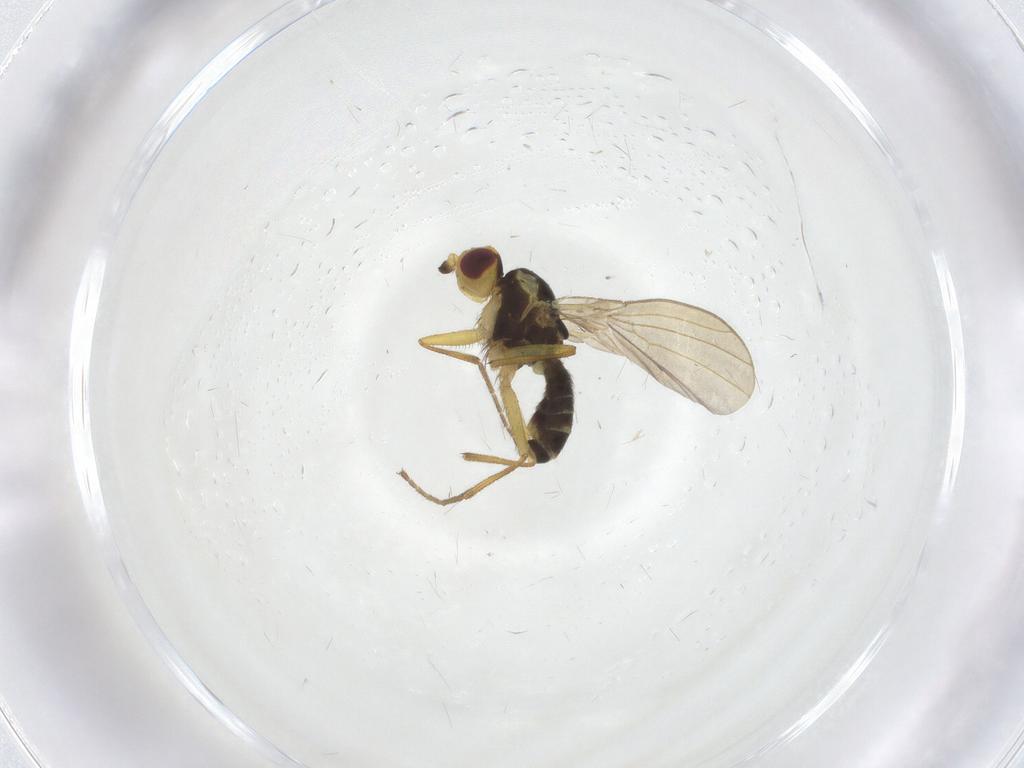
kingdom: Animalia
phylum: Arthropoda
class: Insecta
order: Diptera
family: Agromyzidae
